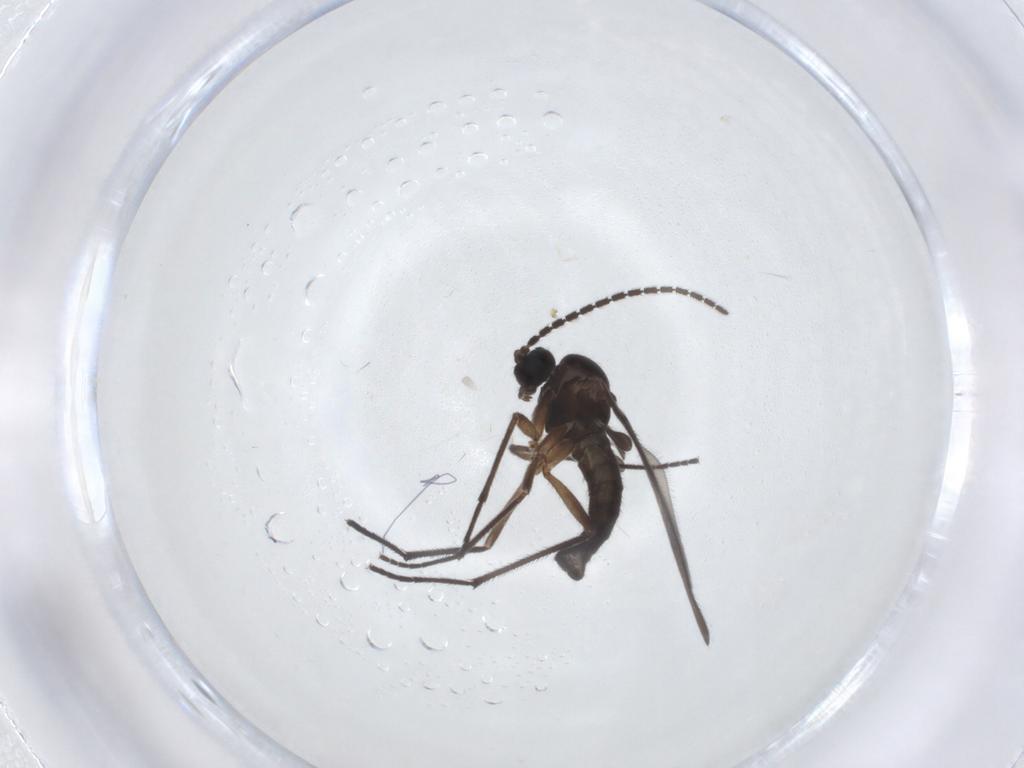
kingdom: Animalia
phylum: Arthropoda
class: Insecta
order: Diptera
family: Sciaridae
